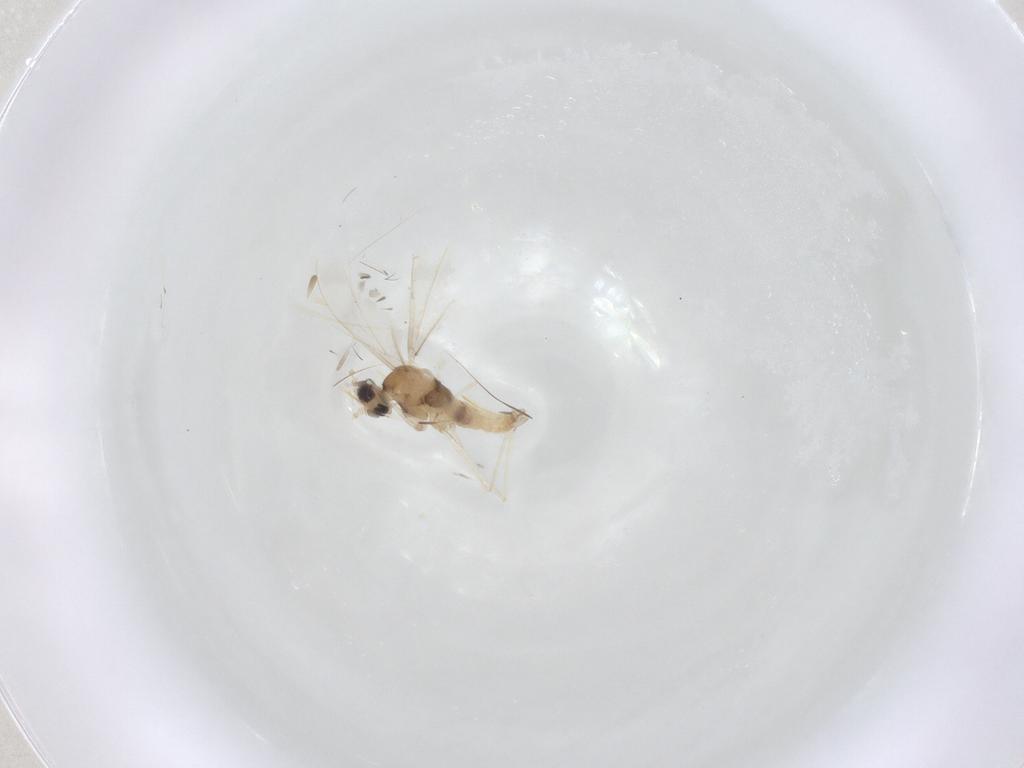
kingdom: Animalia
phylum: Arthropoda
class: Insecta
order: Diptera
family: Cecidomyiidae
